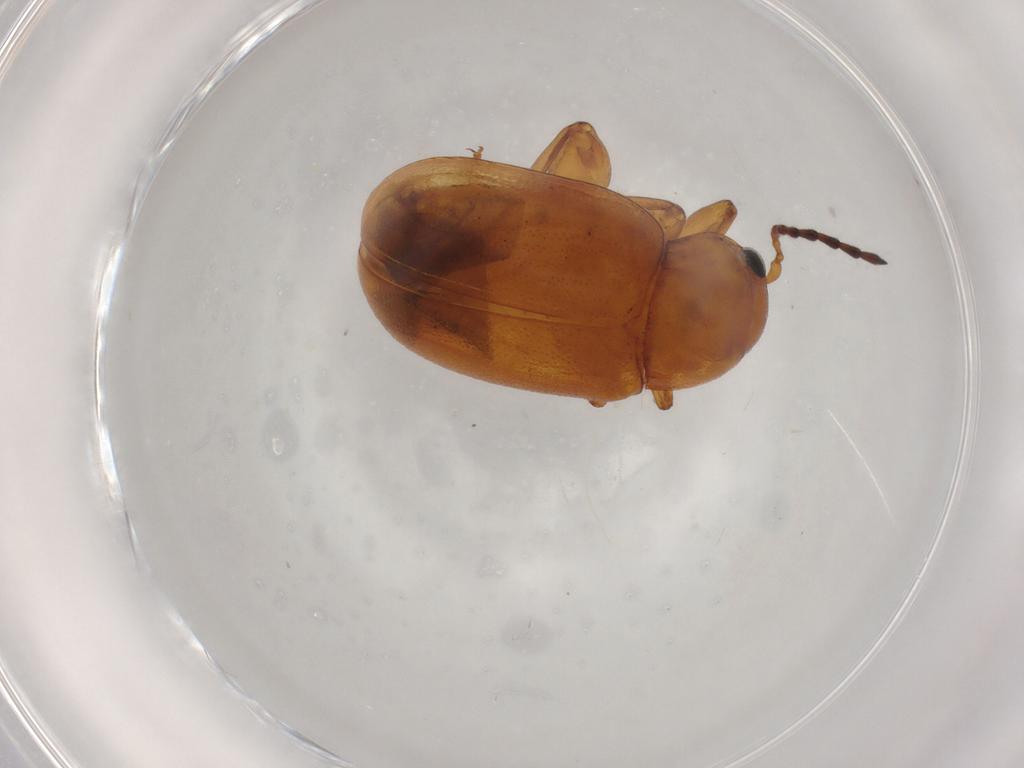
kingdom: Animalia
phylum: Arthropoda
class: Insecta
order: Coleoptera
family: Chrysomelidae
